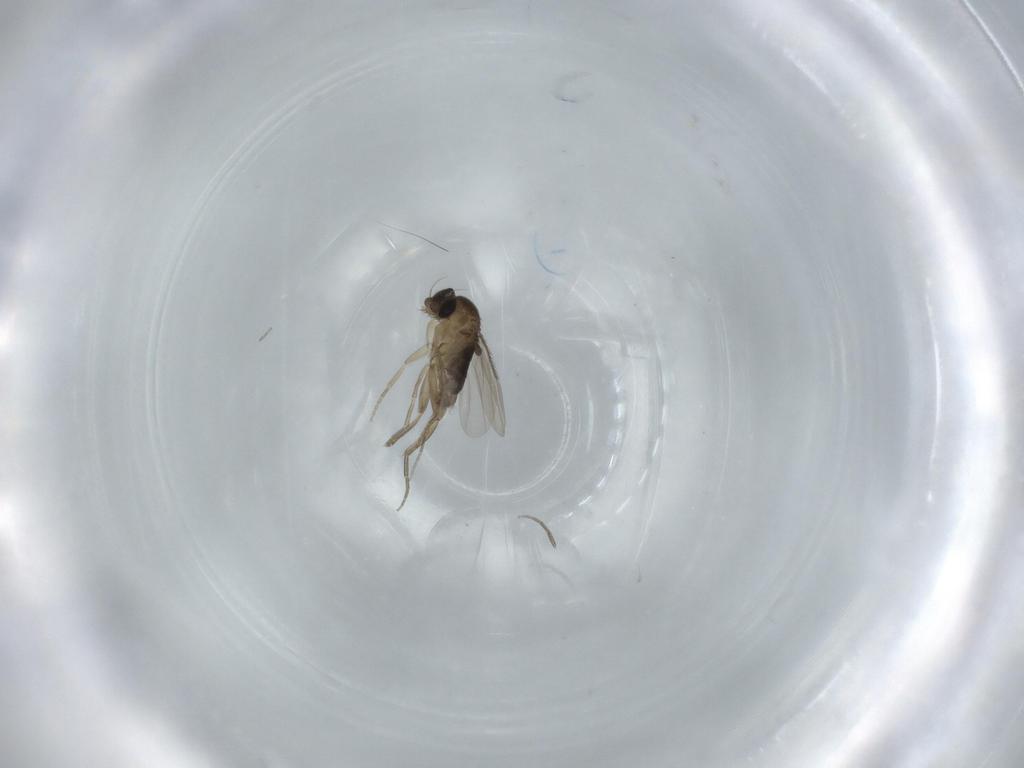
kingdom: Animalia
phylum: Arthropoda
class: Insecta
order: Diptera
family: Phoridae
